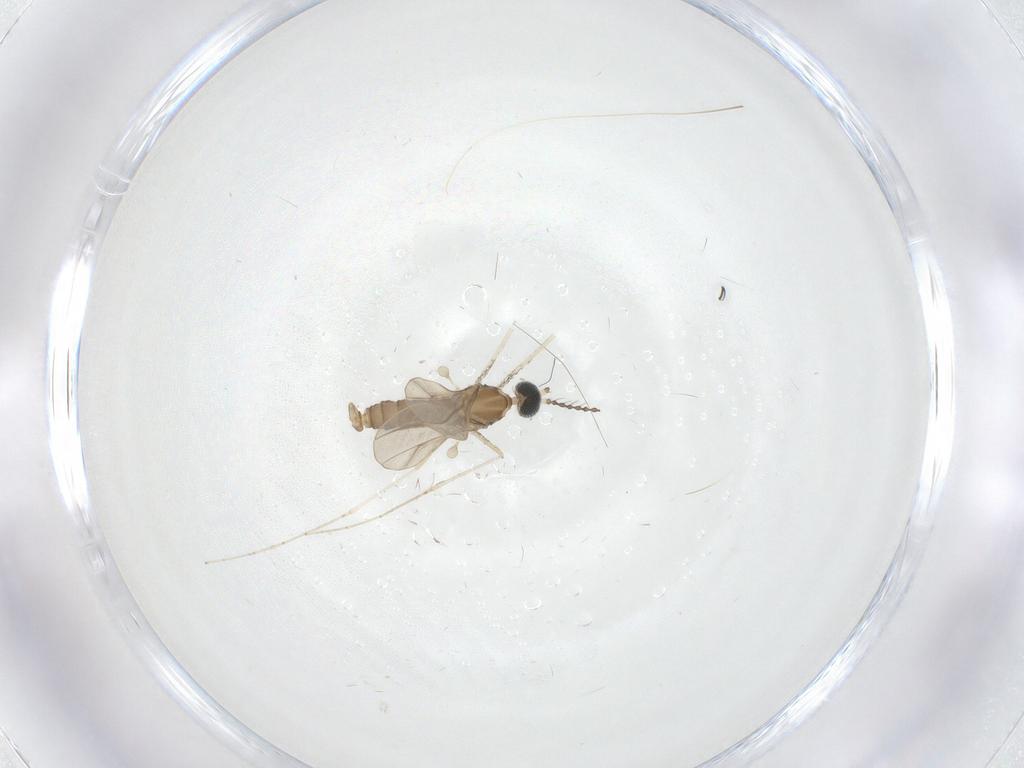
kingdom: Animalia
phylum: Arthropoda
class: Insecta
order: Diptera
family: Cecidomyiidae
